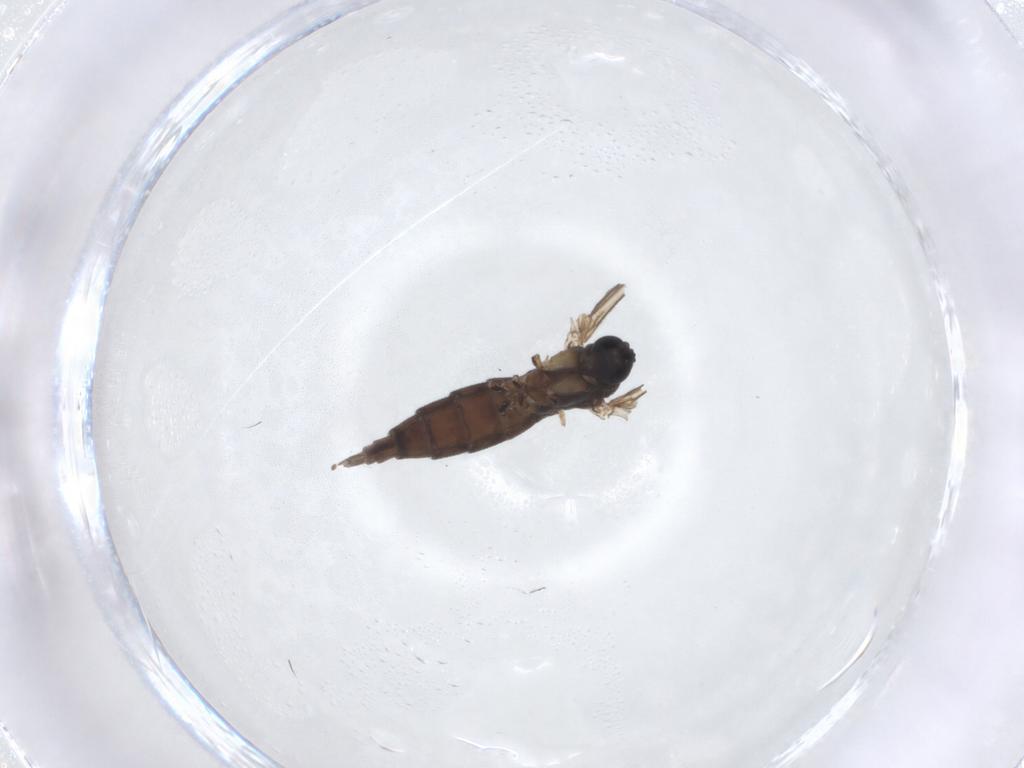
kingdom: Animalia
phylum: Arthropoda
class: Insecta
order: Diptera
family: Sciaridae
